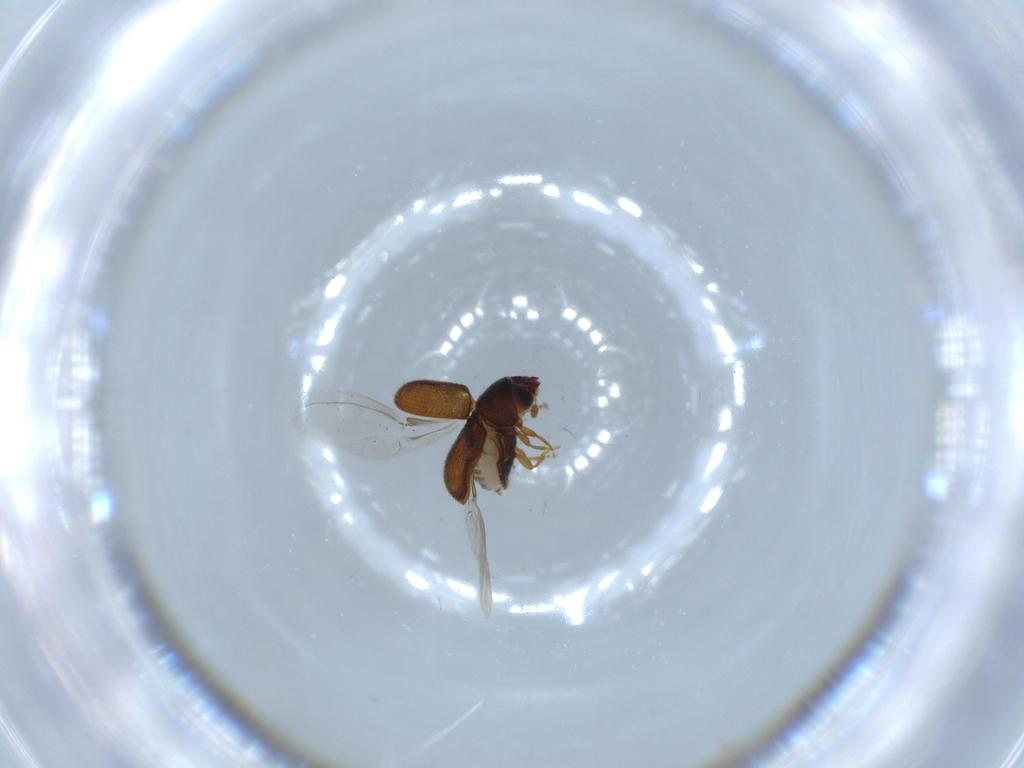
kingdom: Animalia
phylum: Arthropoda
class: Insecta
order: Coleoptera
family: Curculionidae
